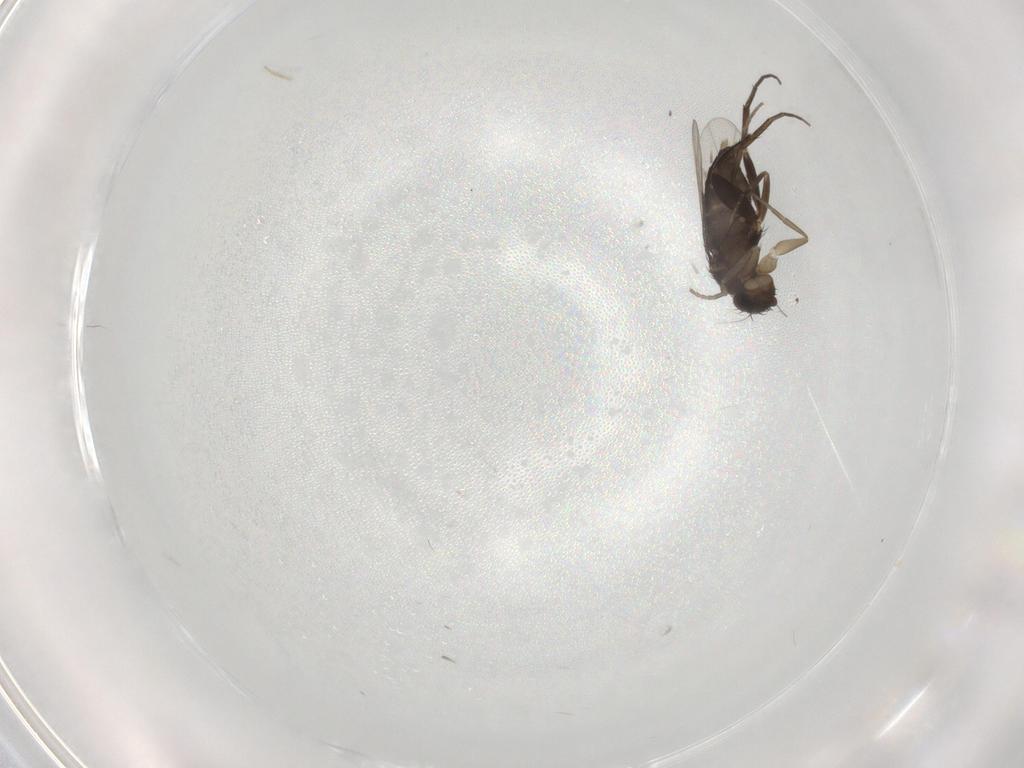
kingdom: Animalia
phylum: Arthropoda
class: Insecta
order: Diptera
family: Phoridae
